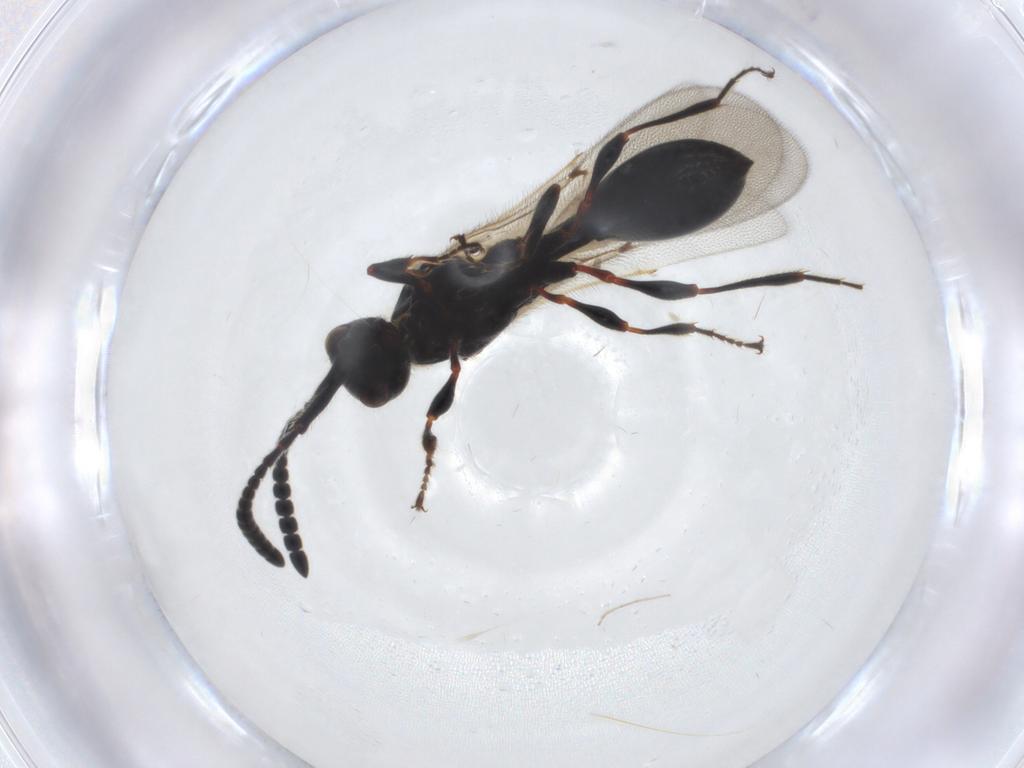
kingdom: Animalia
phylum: Arthropoda
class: Insecta
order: Hymenoptera
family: Diapriidae
